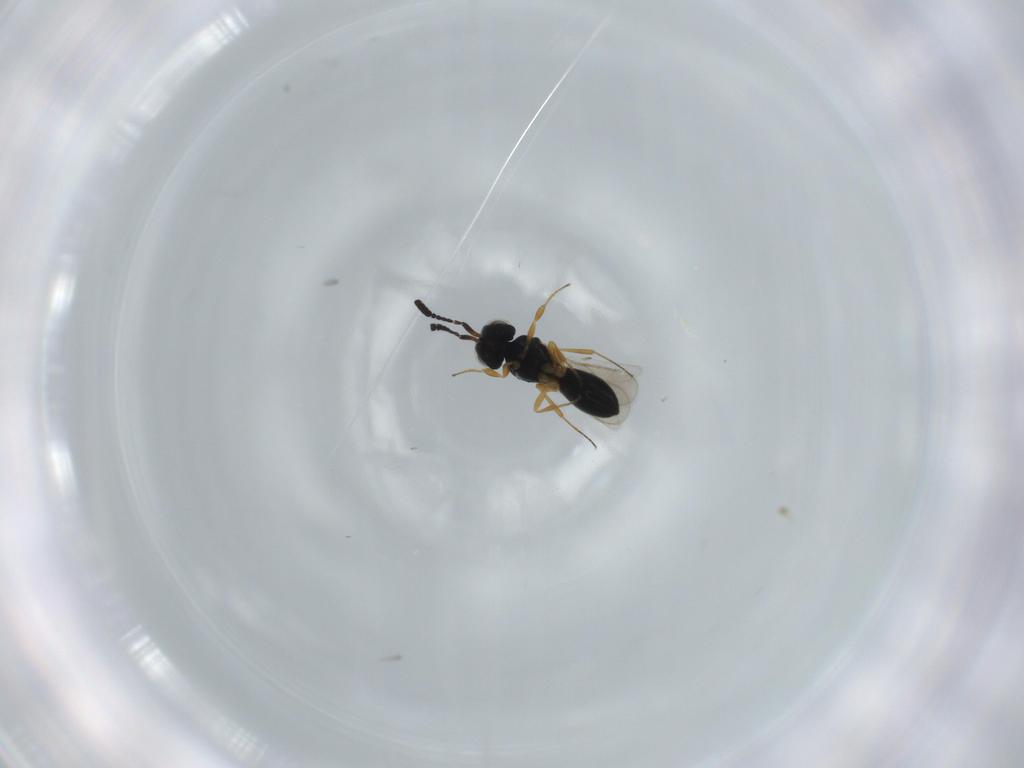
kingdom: Animalia
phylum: Arthropoda
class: Insecta
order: Hymenoptera
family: Scelionidae
